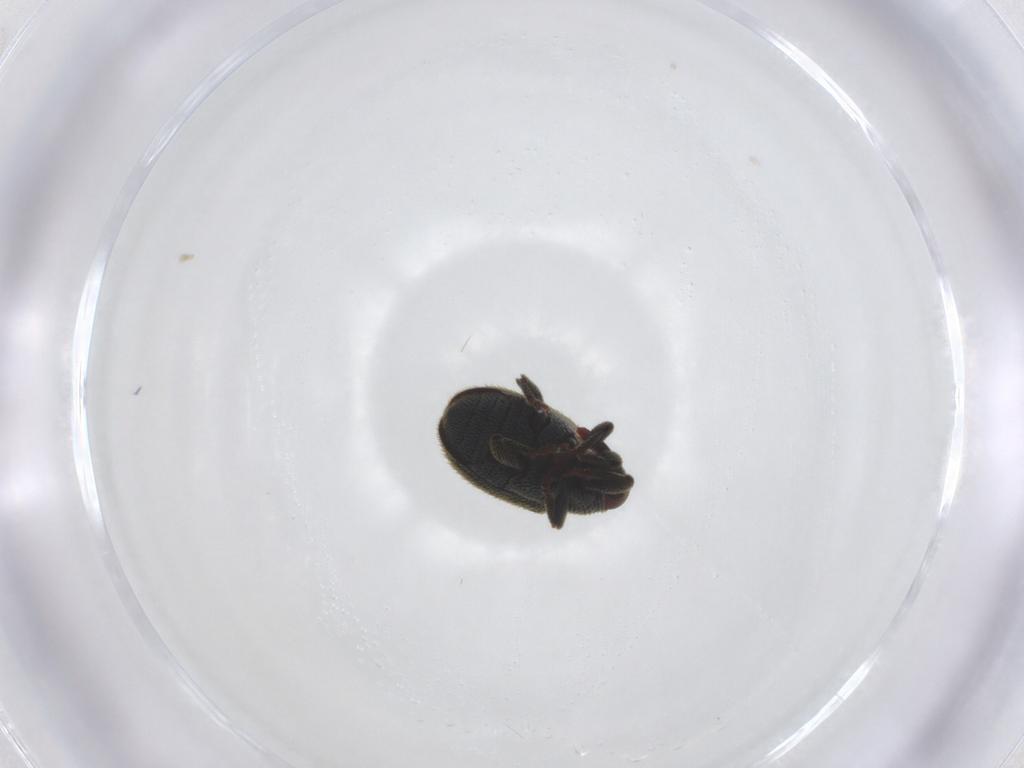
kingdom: Animalia
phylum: Arthropoda
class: Insecta
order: Coleoptera
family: Curculionidae
